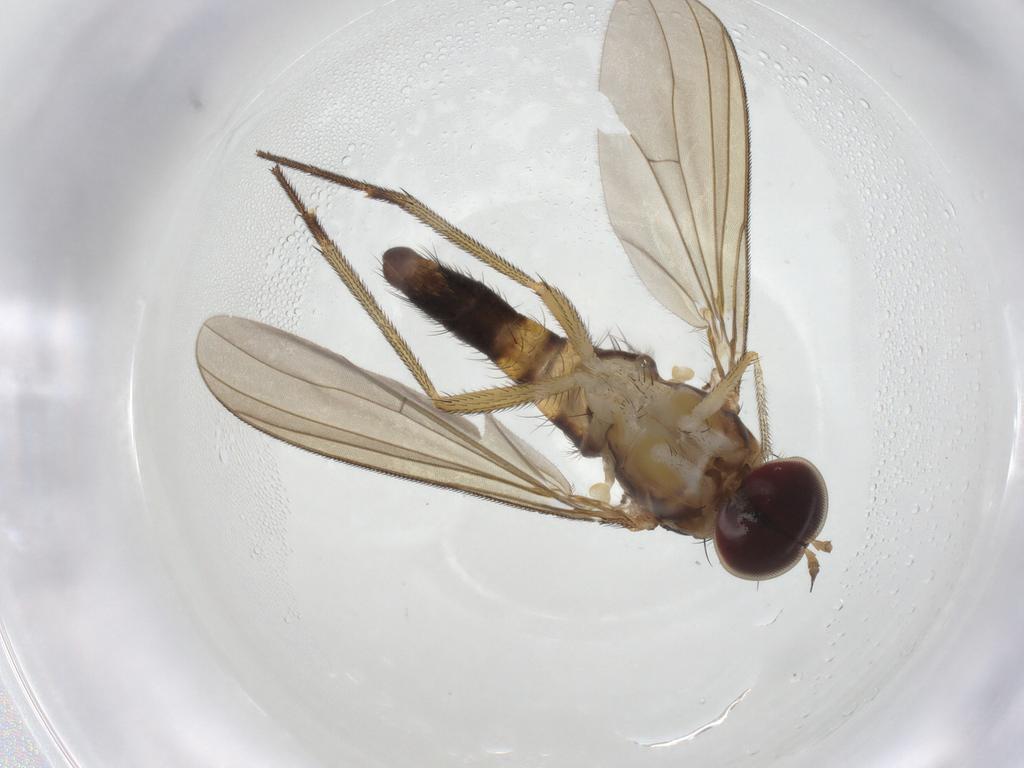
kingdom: Animalia
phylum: Arthropoda
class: Insecta
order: Diptera
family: Dolichopodidae
